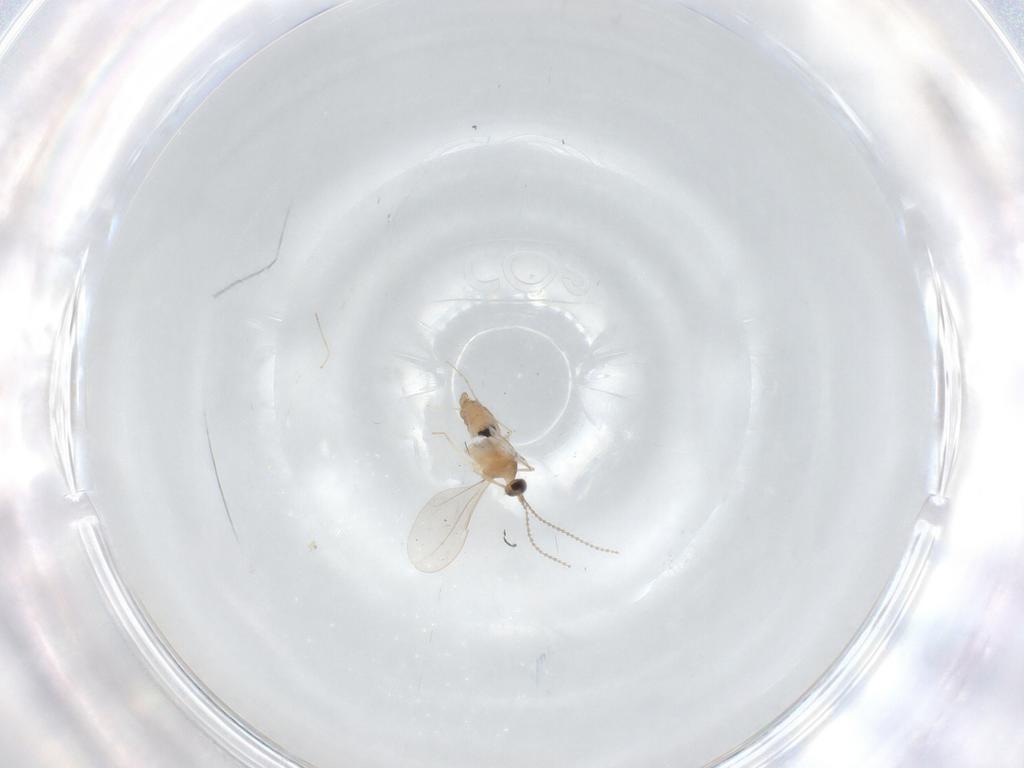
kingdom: Animalia
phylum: Arthropoda
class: Insecta
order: Diptera
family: Cecidomyiidae
